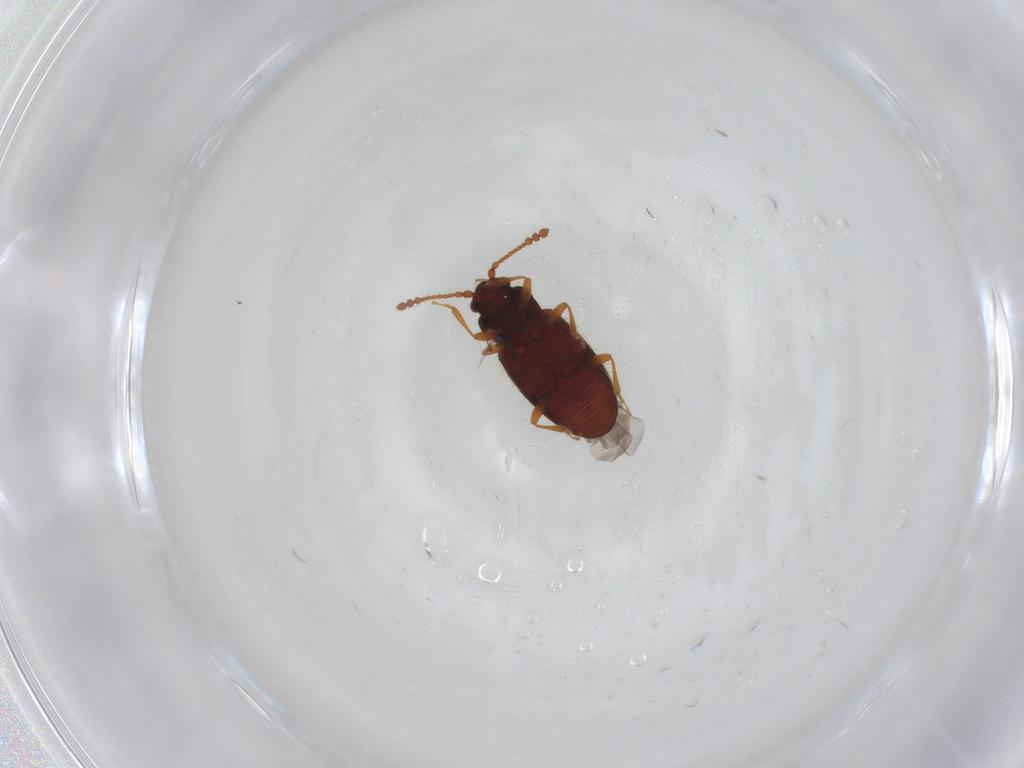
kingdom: Animalia
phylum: Arthropoda
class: Insecta
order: Coleoptera
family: Cryptophagidae
